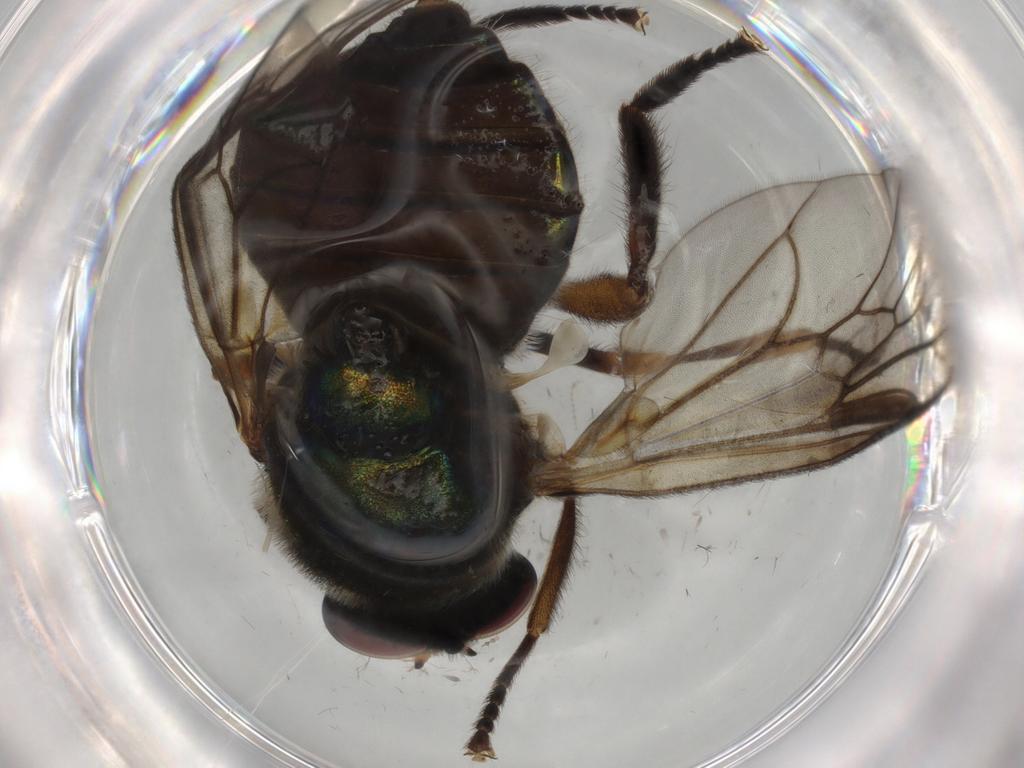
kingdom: Animalia
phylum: Arthropoda
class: Insecta
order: Diptera
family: Stratiomyidae
